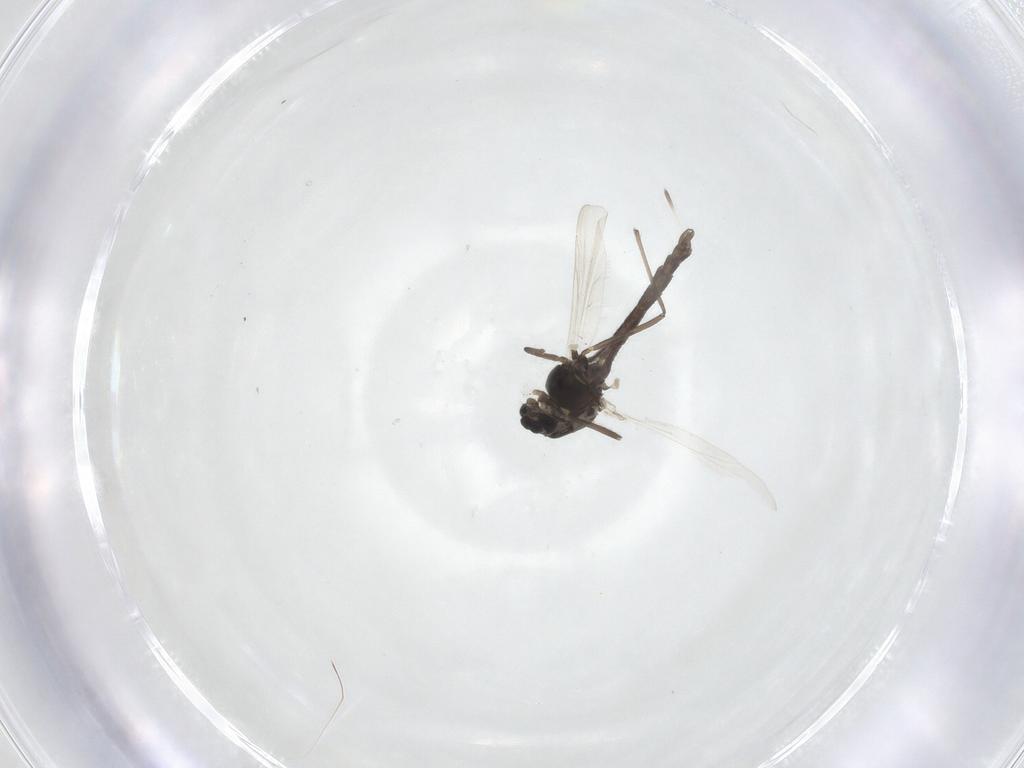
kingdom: Animalia
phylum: Arthropoda
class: Insecta
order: Diptera
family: Chironomidae
